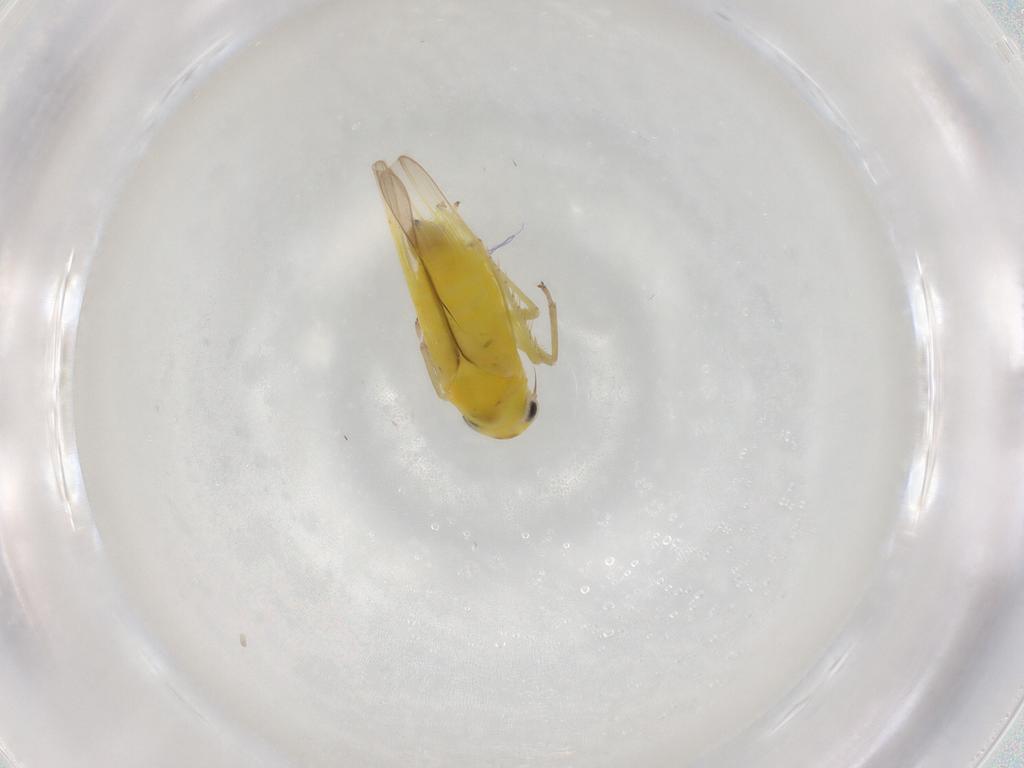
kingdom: Animalia
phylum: Arthropoda
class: Insecta
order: Hemiptera
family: Cicadellidae
